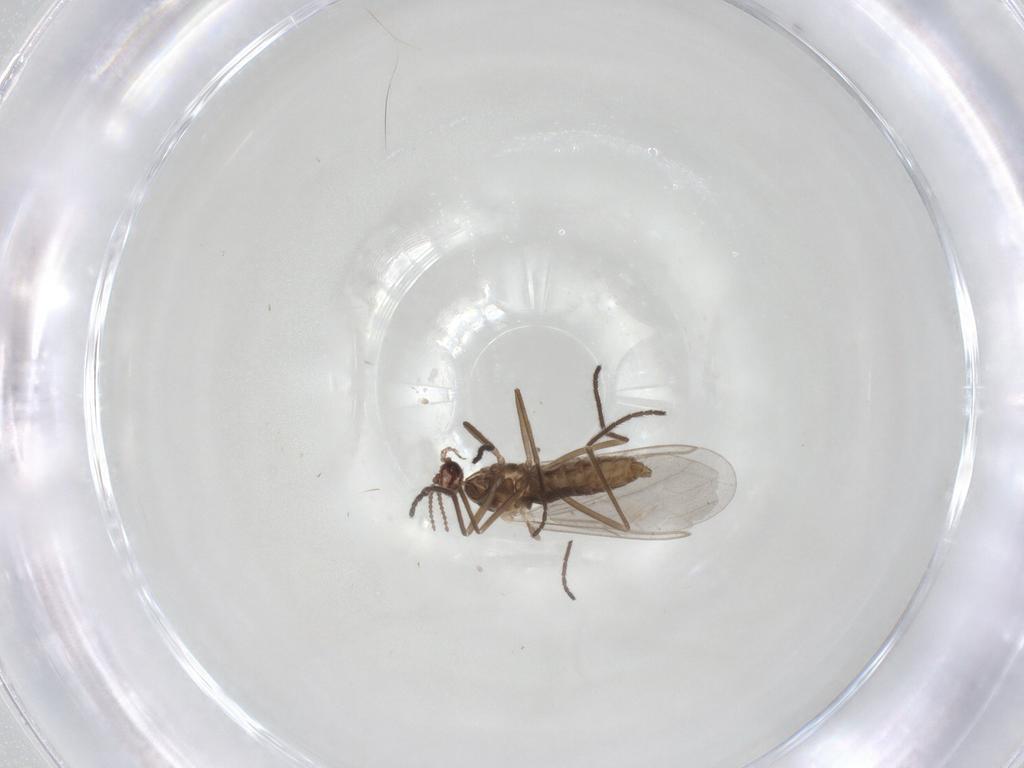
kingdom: Animalia
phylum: Arthropoda
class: Insecta
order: Diptera
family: Cecidomyiidae
